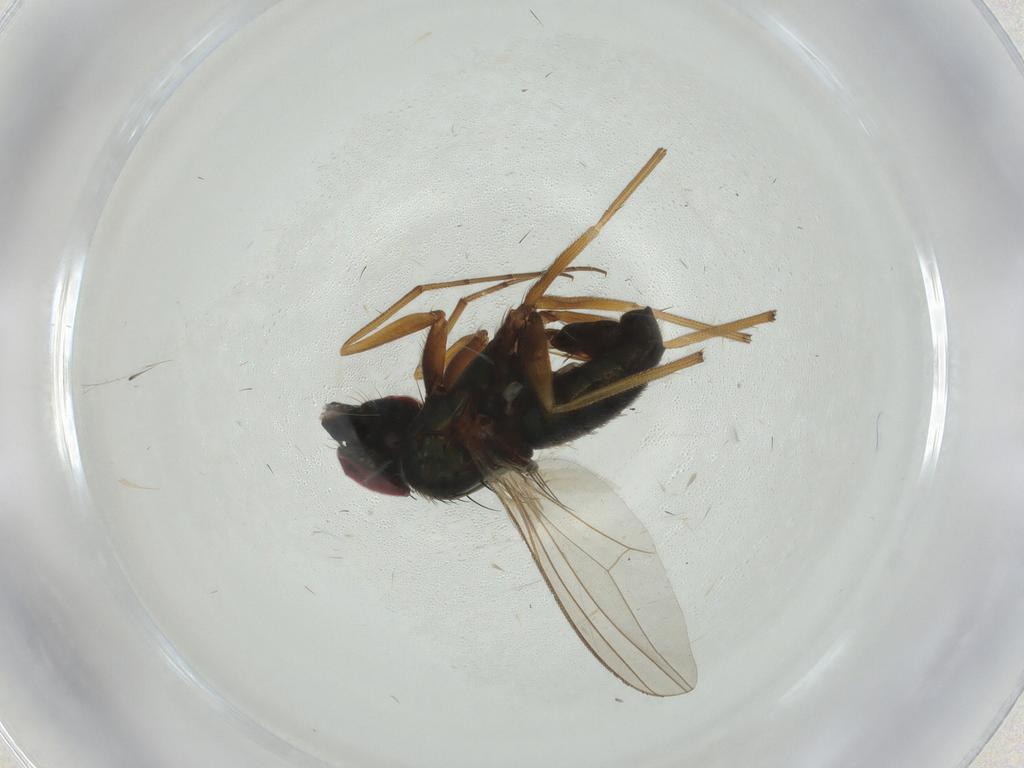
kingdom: Animalia
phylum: Arthropoda
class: Insecta
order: Diptera
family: Dolichopodidae
